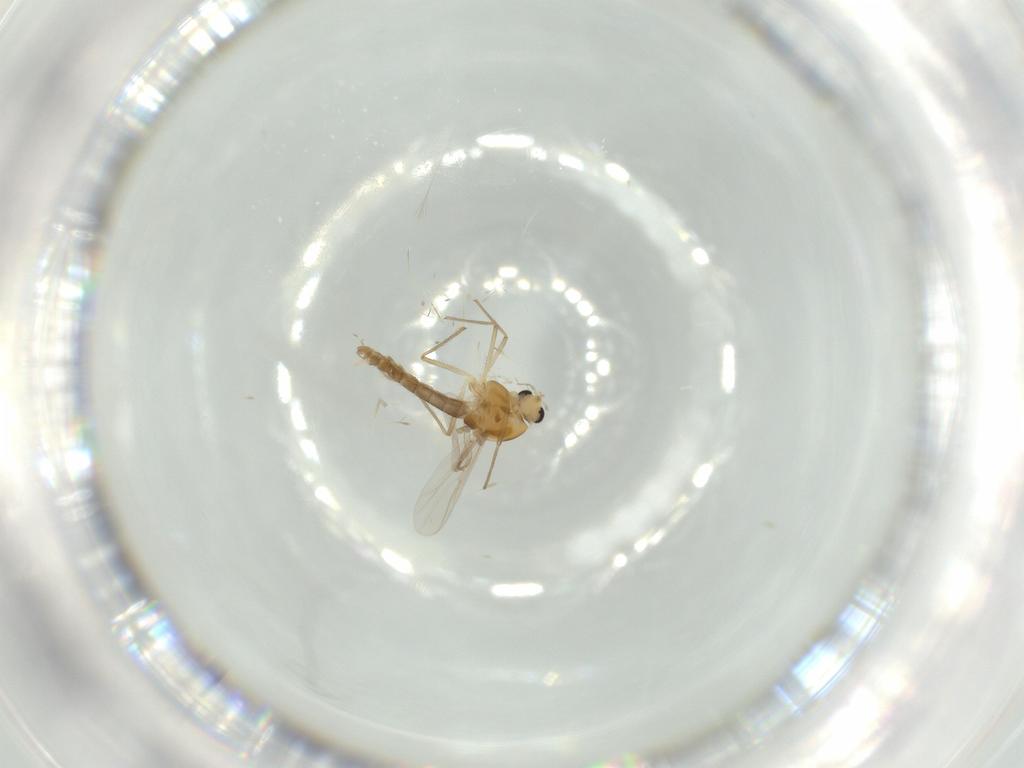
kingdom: Animalia
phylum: Arthropoda
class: Insecta
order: Diptera
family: Chironomidae
